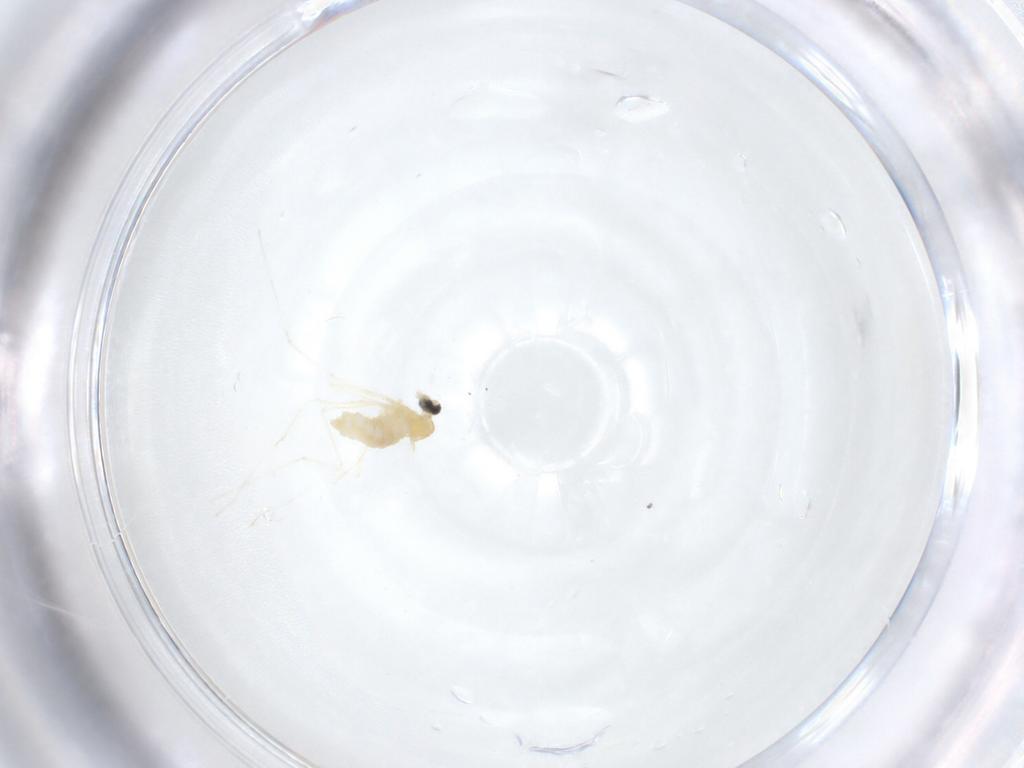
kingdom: Animalia
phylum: Arthropoda
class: Insecta
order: Diptera
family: Cecidomyiidae
